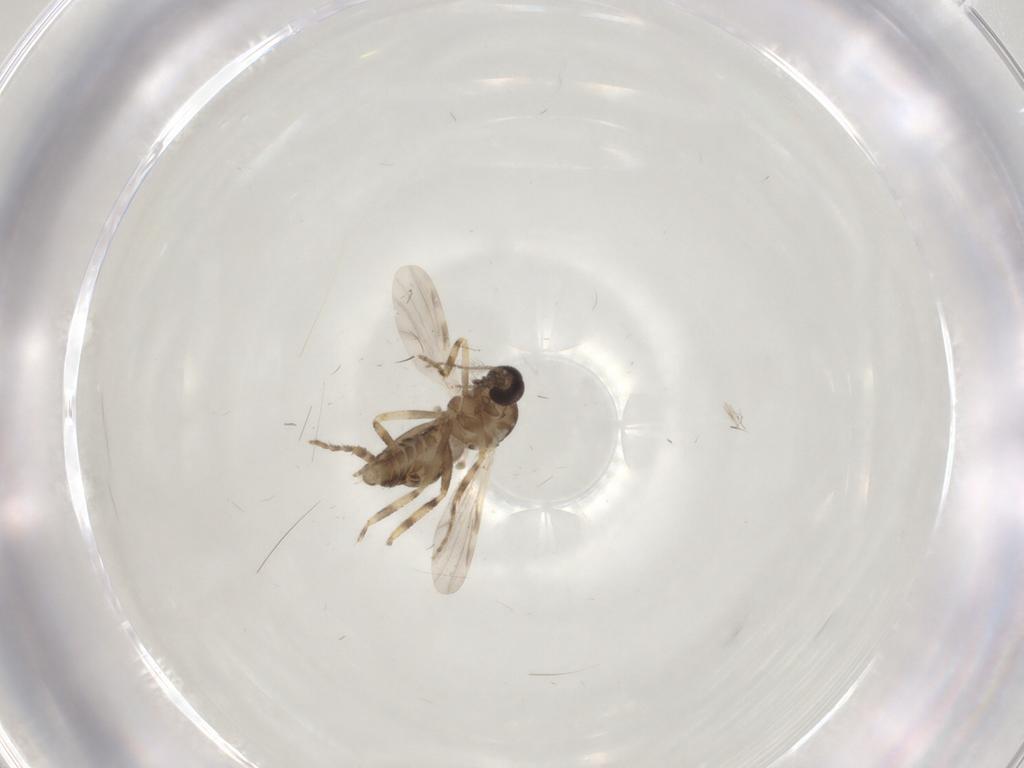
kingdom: Animalia
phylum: Arthropoda
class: Insecta
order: Diptera
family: Ceratopogonidae
